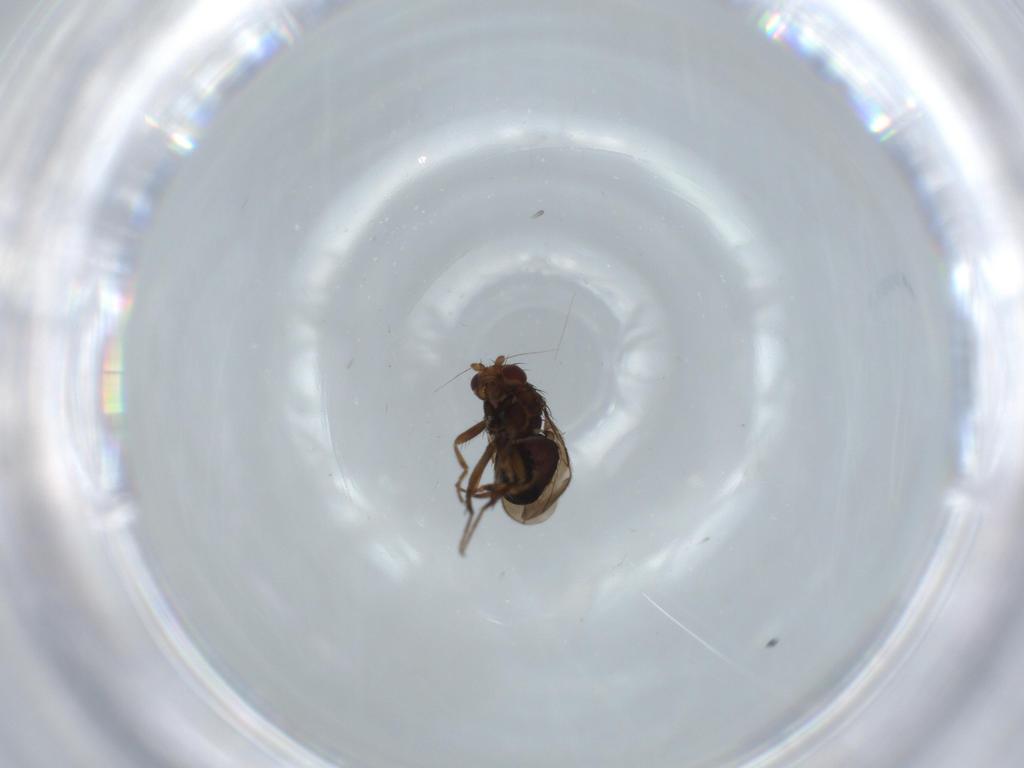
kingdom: Animalia
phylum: Arthropoda
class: Insecta
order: Diptera
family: Sphaeroceridae
